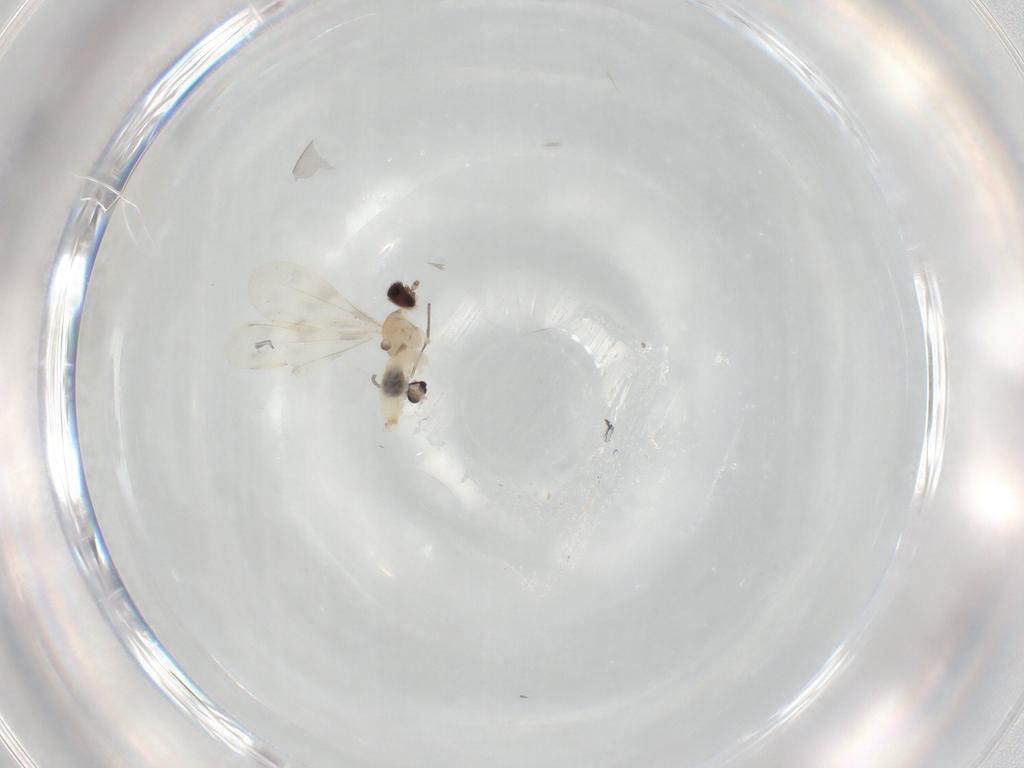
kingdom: Animalia
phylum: Arthropoda
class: Insecta
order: Diptera
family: Cecidomyiidae
